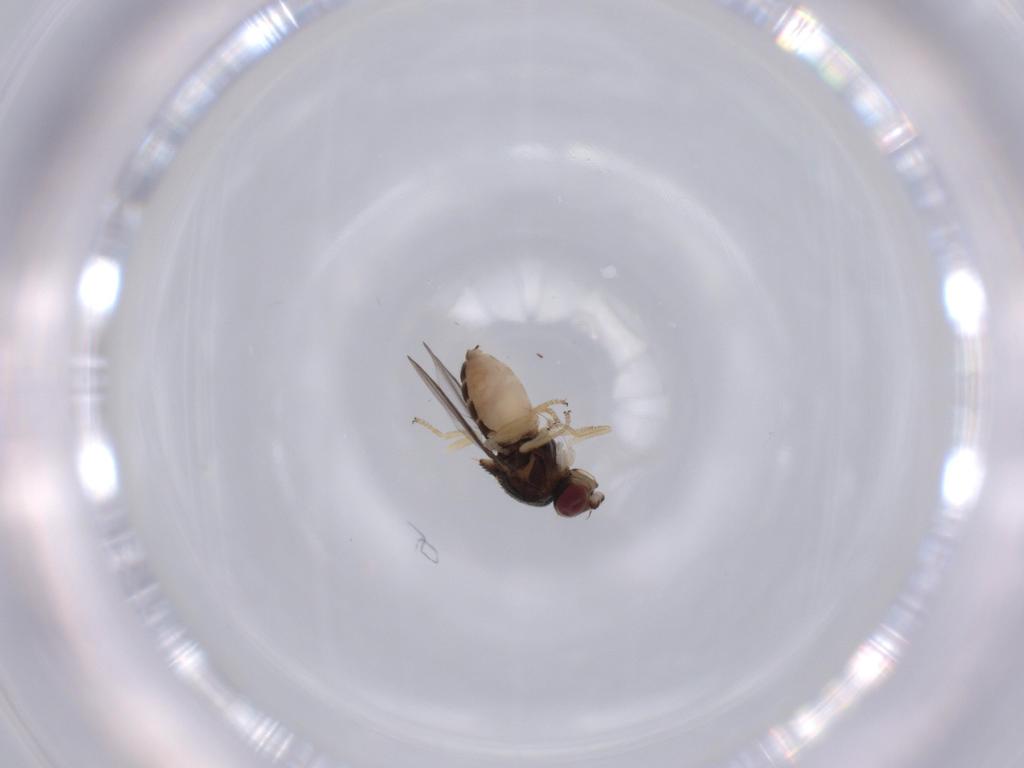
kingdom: Animalia
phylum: Arthropoda
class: Insecta
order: Diptera
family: Chloropidae
